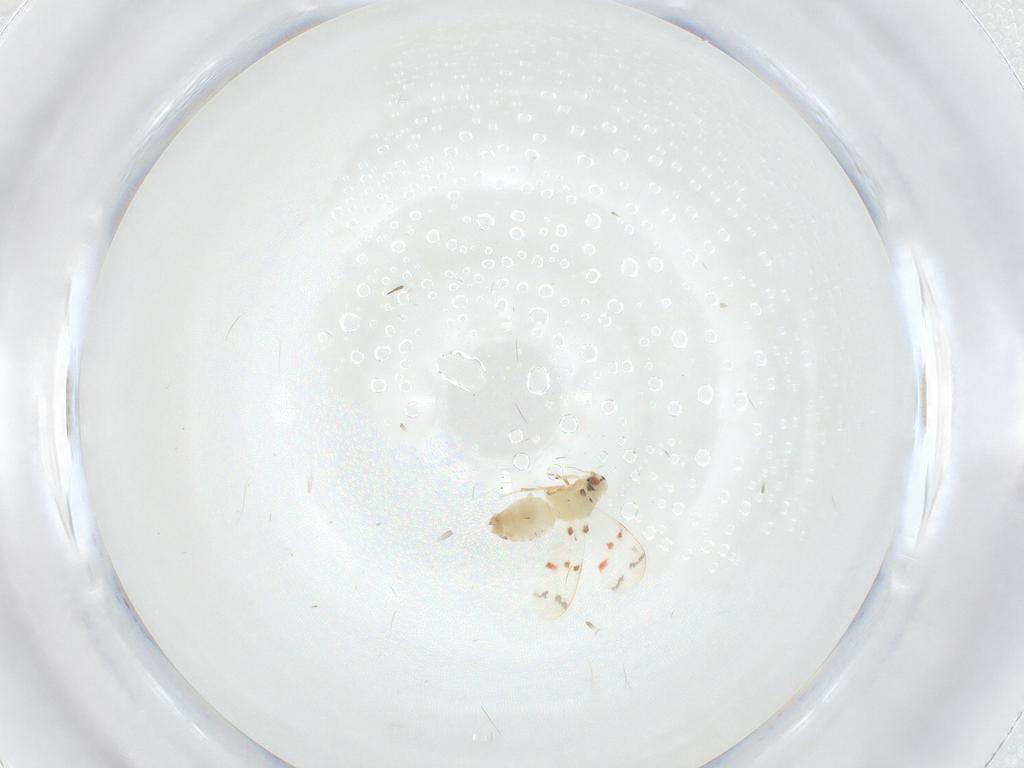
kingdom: Animalia
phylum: Arthropoda
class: Insecta
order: Hemiptera
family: Aleyrodidae
